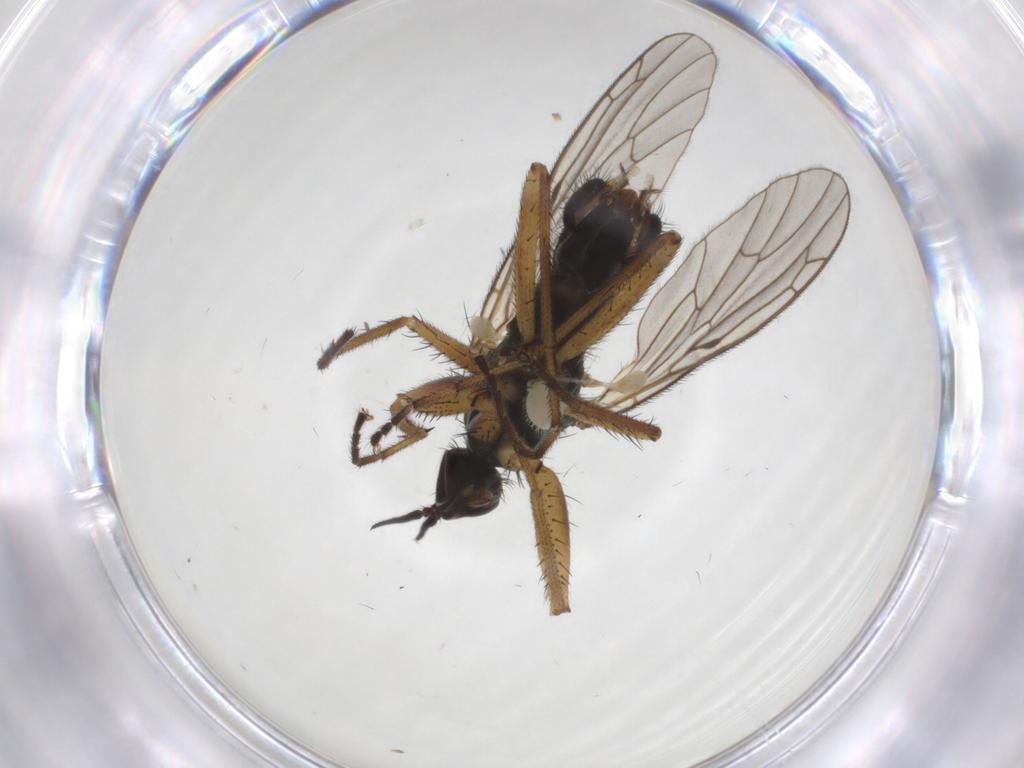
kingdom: Animalia
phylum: Arthropoda
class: Insecta
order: Diptera
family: Empididae
